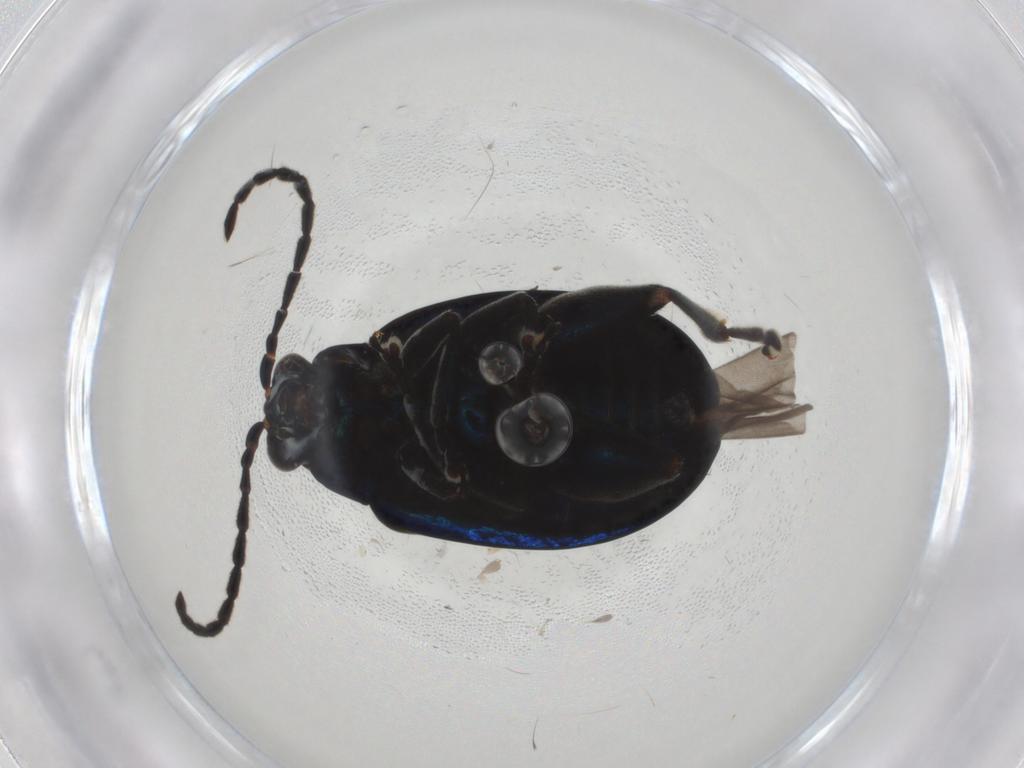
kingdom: Animalia
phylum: Arthropoda
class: Insecta
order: Coleoptera
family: Chrysomelidae
